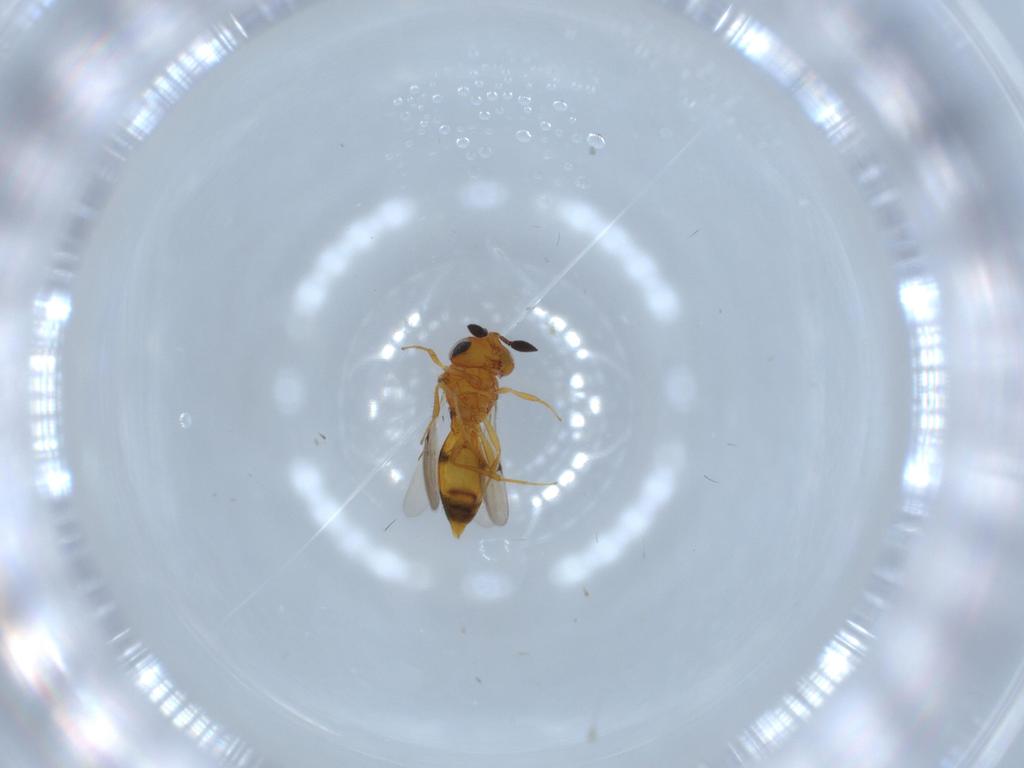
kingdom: Animalia
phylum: Arthropoda
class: Insecta
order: Hymenoptera
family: Scelionidae
